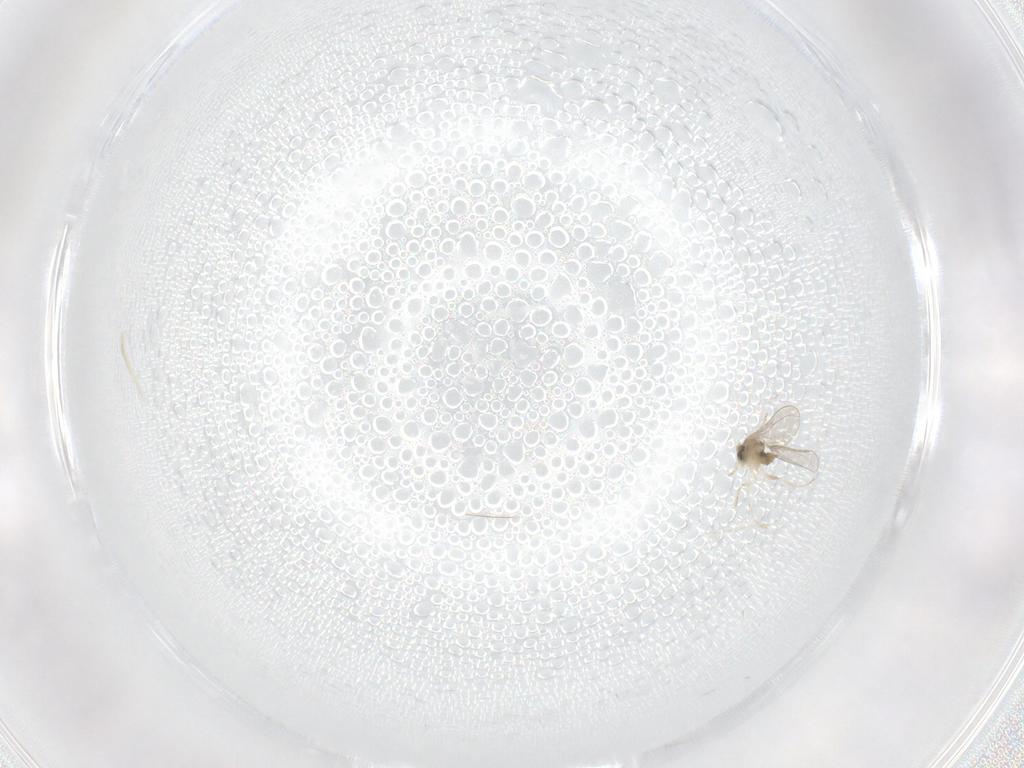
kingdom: Animalia
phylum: Arthropoda
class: Insecta
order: Diptera
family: Cecidomyiidae
